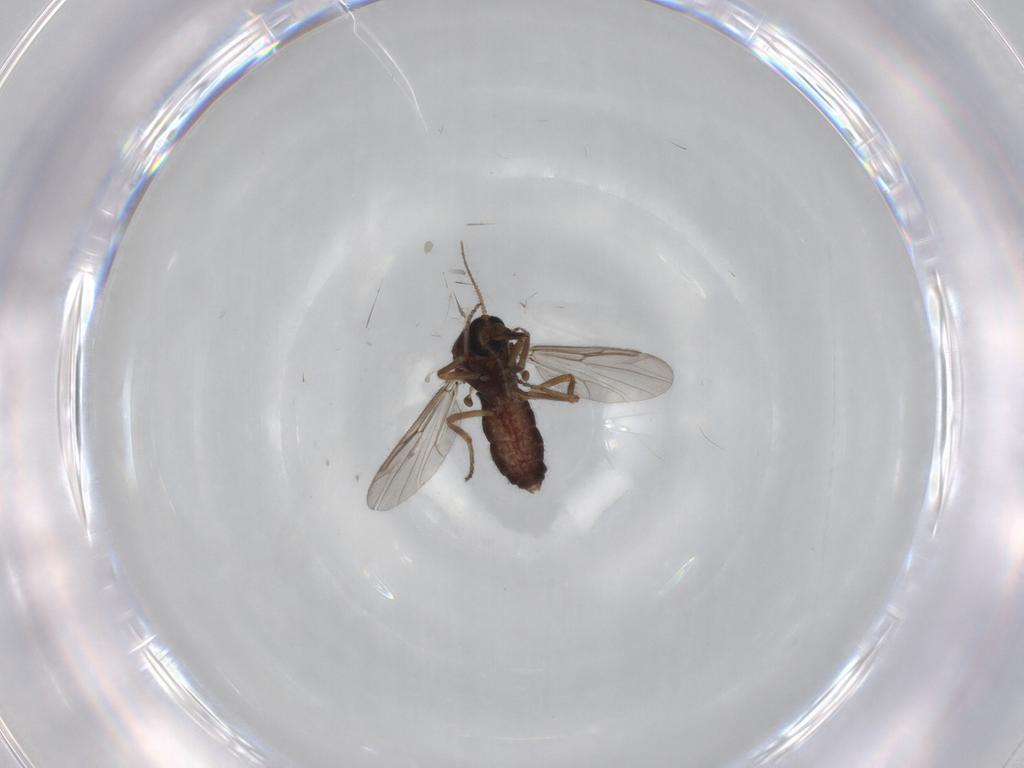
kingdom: Animalia
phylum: Arthropoda
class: Insecta
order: Diptera
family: Ceratopogonidae
